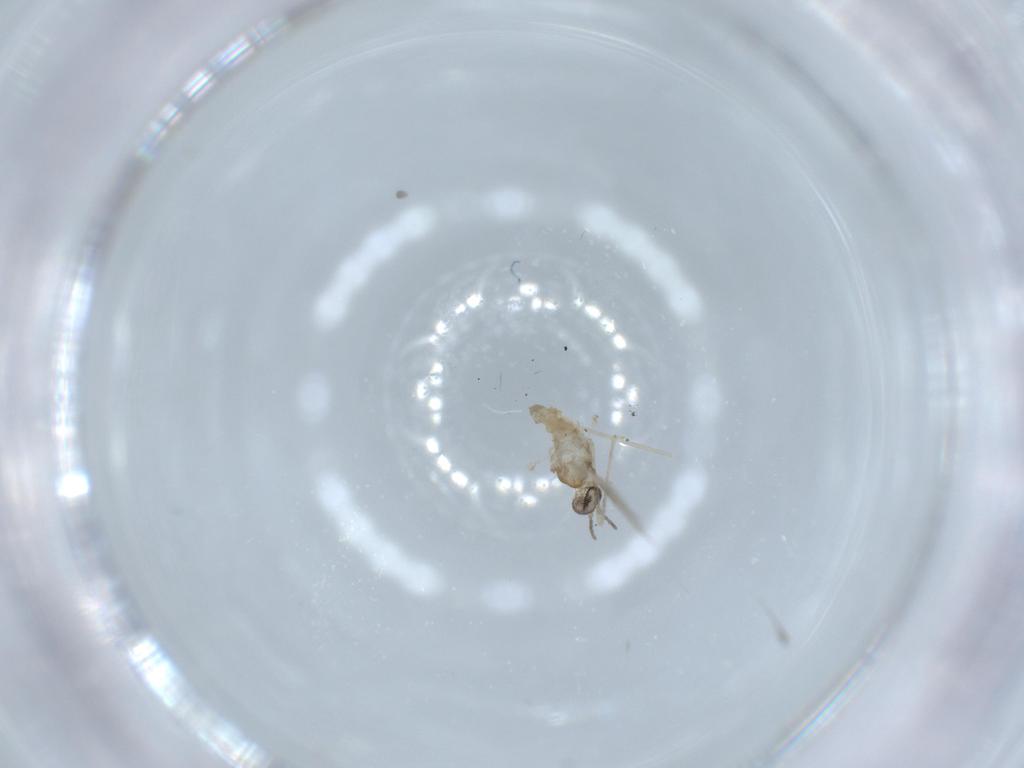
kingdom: Animalia
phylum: Arthropoda
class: Insecta
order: Diptera
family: Cecidomyiidae
